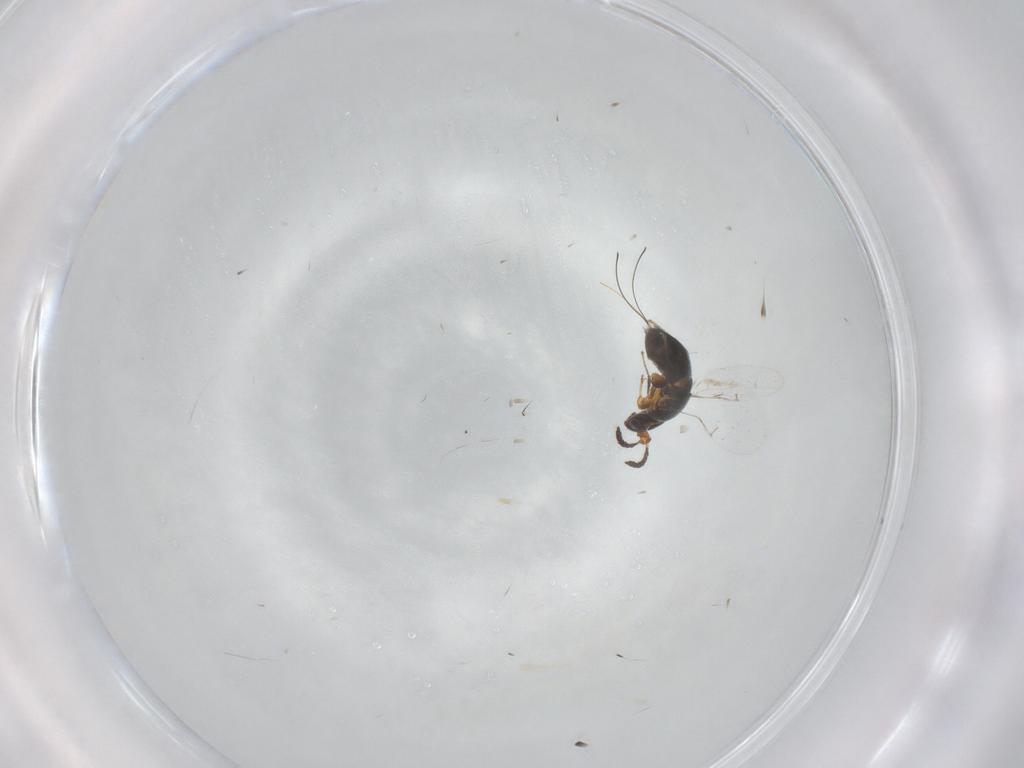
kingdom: Animalia
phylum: Arthropoda
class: Insecta
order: Hymenoptera
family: Agaonidae
